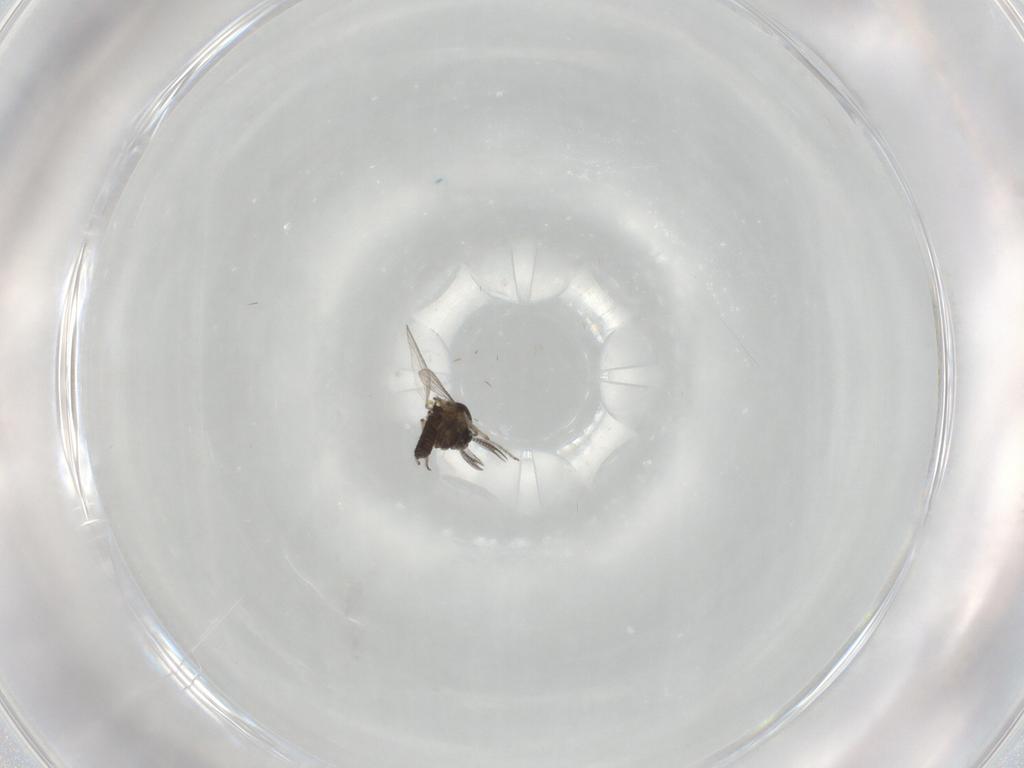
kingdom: Animalia
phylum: Arthropoda
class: Insecta
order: Diptera
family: Ceratopogonidae
